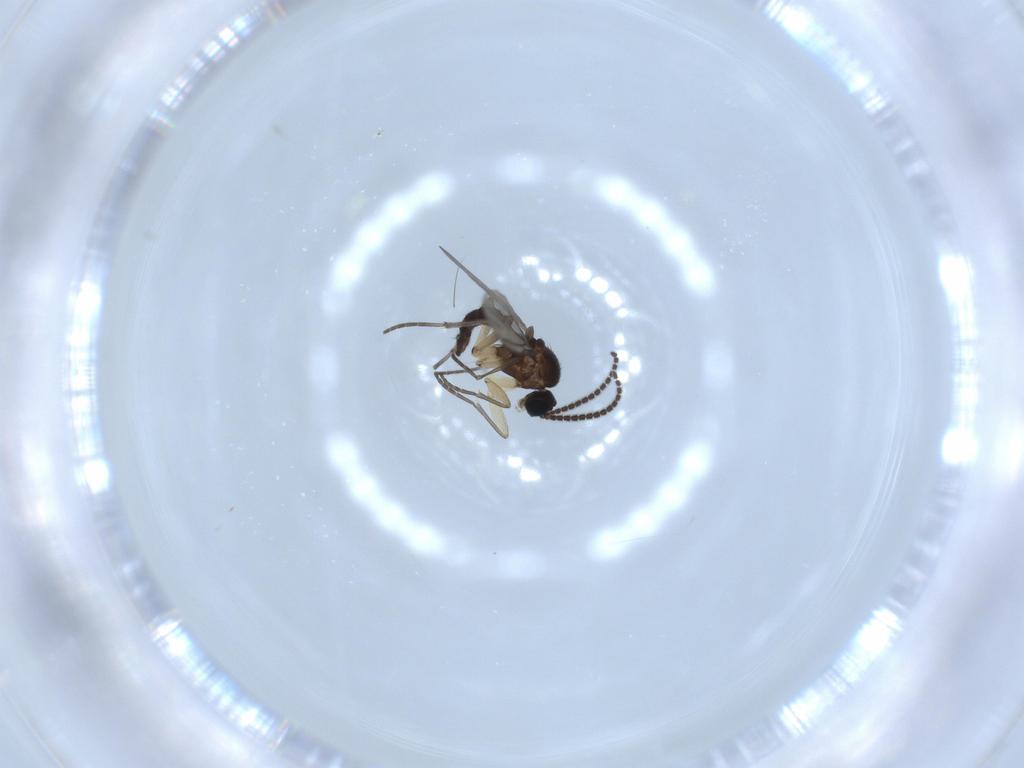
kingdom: Animalia
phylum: Arthropoda
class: Insecta
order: Diptera
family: Sciaridae
